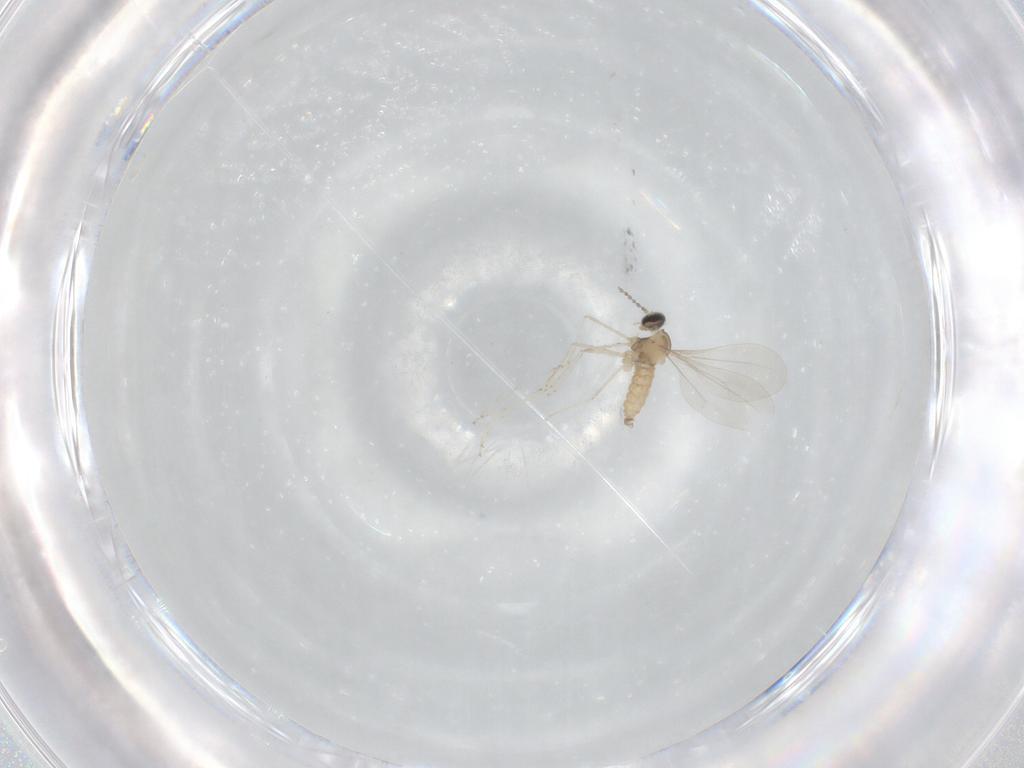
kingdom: Animalia
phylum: Arthropoda
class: Insecta
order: Diptera
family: Cecidomyiidae
